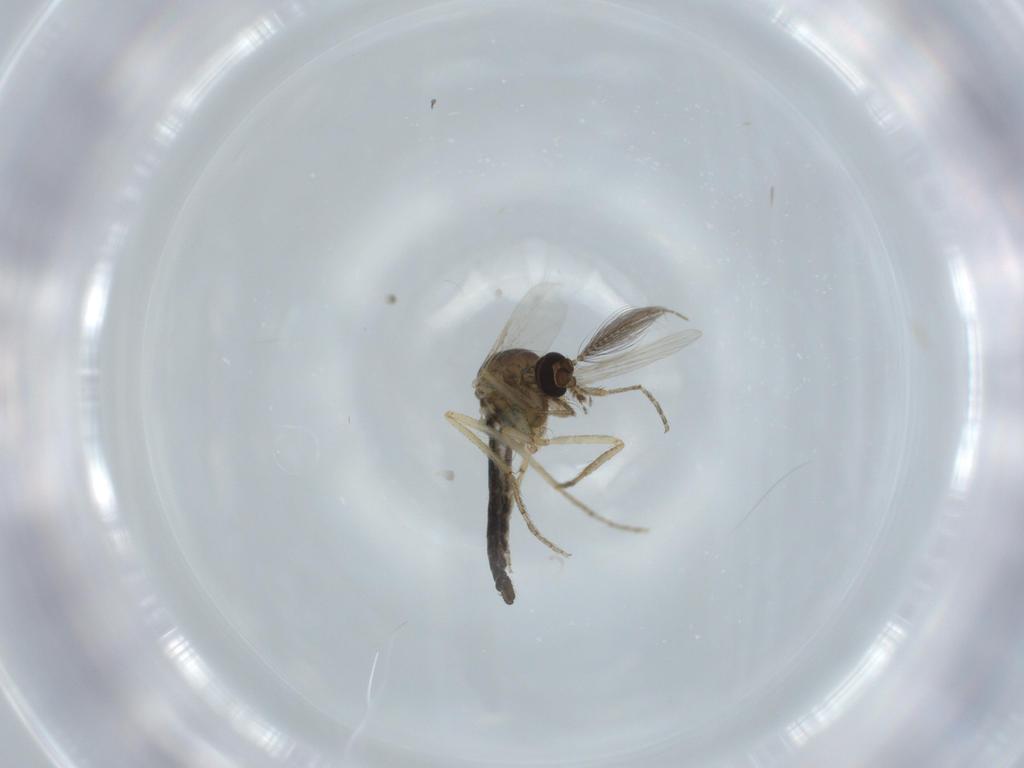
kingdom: Animalia
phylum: Arthropoda
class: Insecta
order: Diptera
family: Ceratopogonidae
